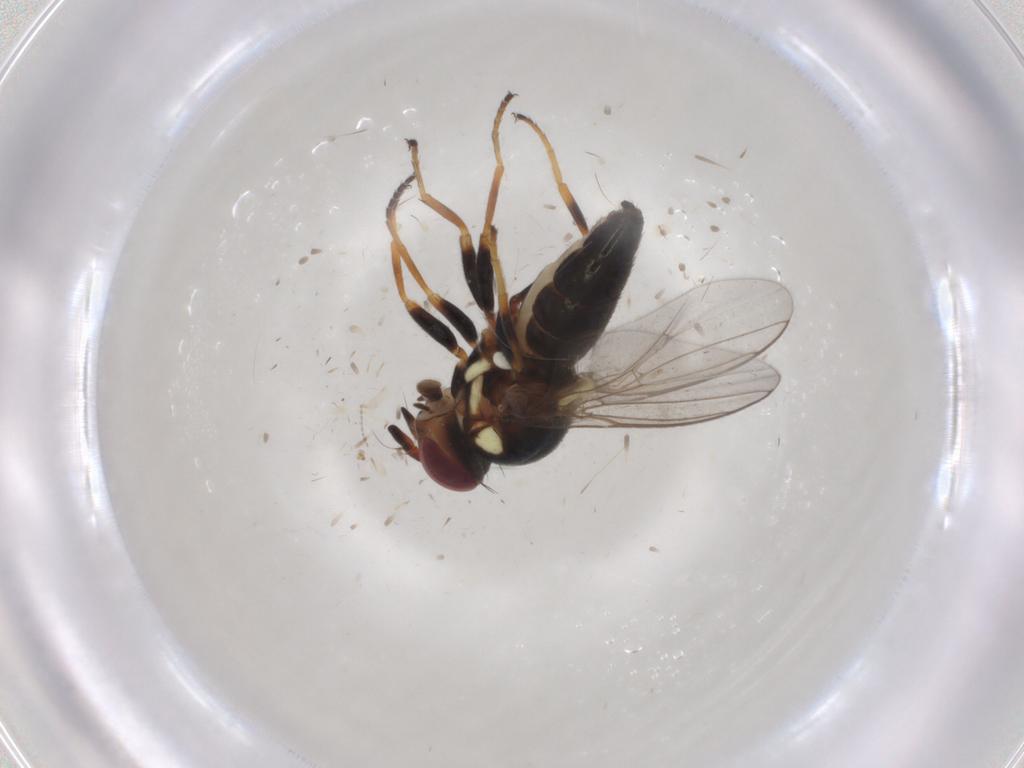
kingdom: Animalia
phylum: Arthropoda
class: Insecta
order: Diptera
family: Chloropidae
